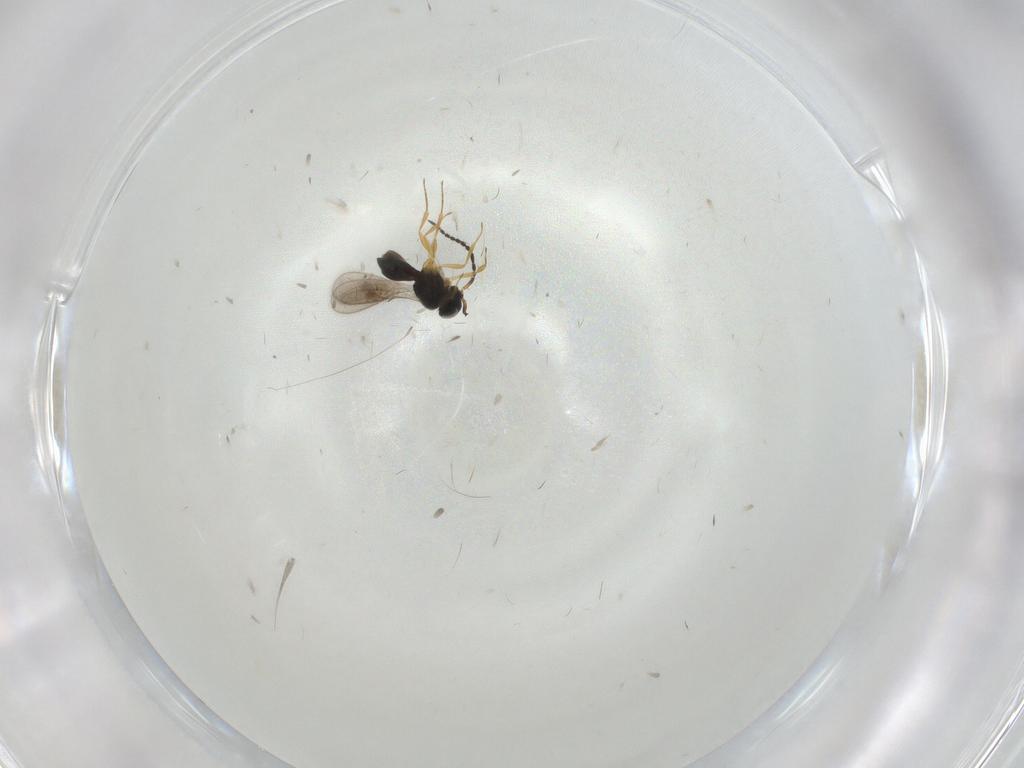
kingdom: Animalia
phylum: Arthropoda
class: Insecta
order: Hymenoptera
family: Scelionidae
